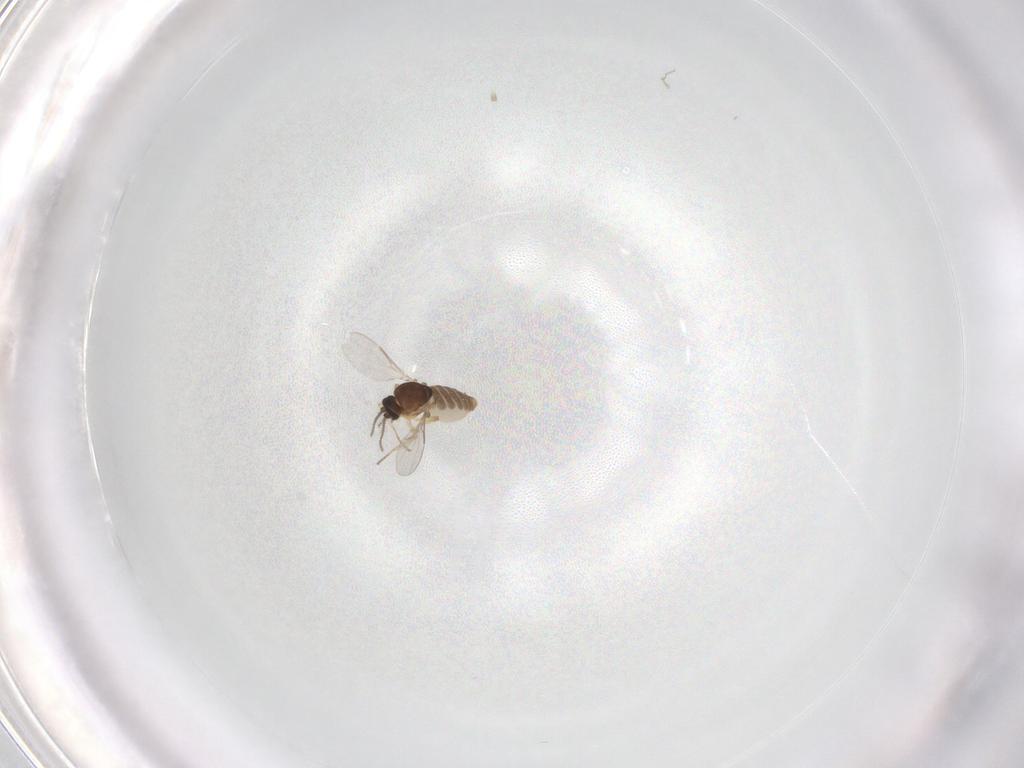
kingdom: Animalia
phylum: Arthropoda
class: Insecta
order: Diptera
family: Ceratopogonidae
